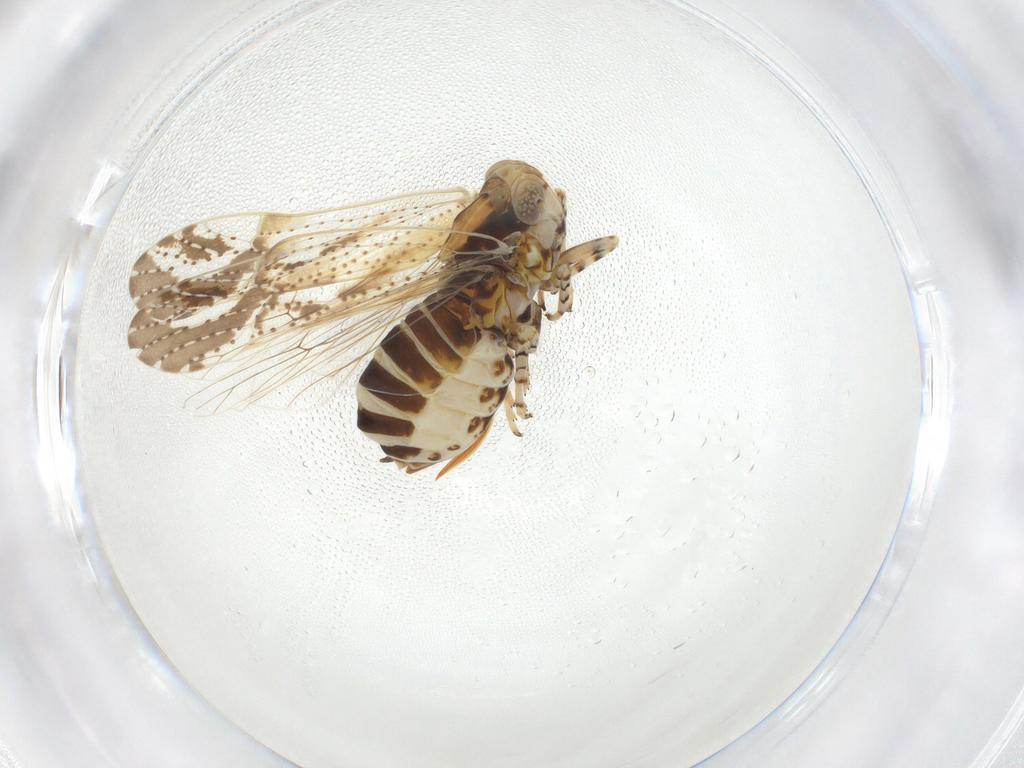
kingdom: Animalia
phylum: Arthropoda
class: Insecta
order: Hemiptera
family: Delphacidae
